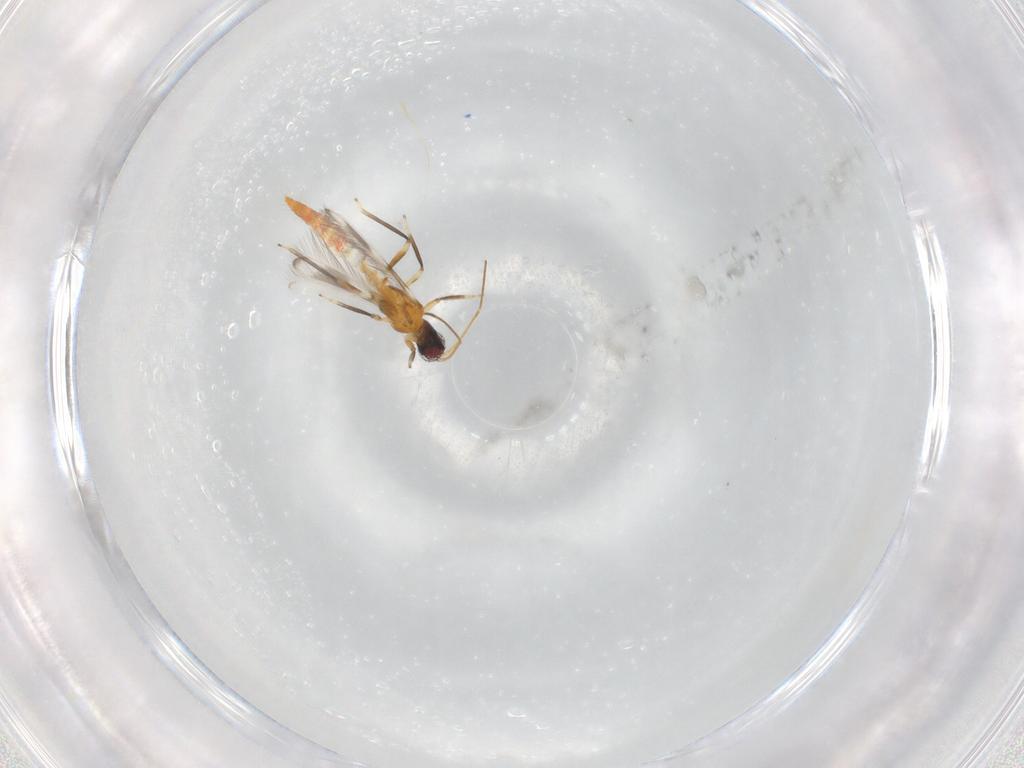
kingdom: Animalia
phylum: Arthropoda
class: Insecta
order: Thysanoptera
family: Aeolothripidae
